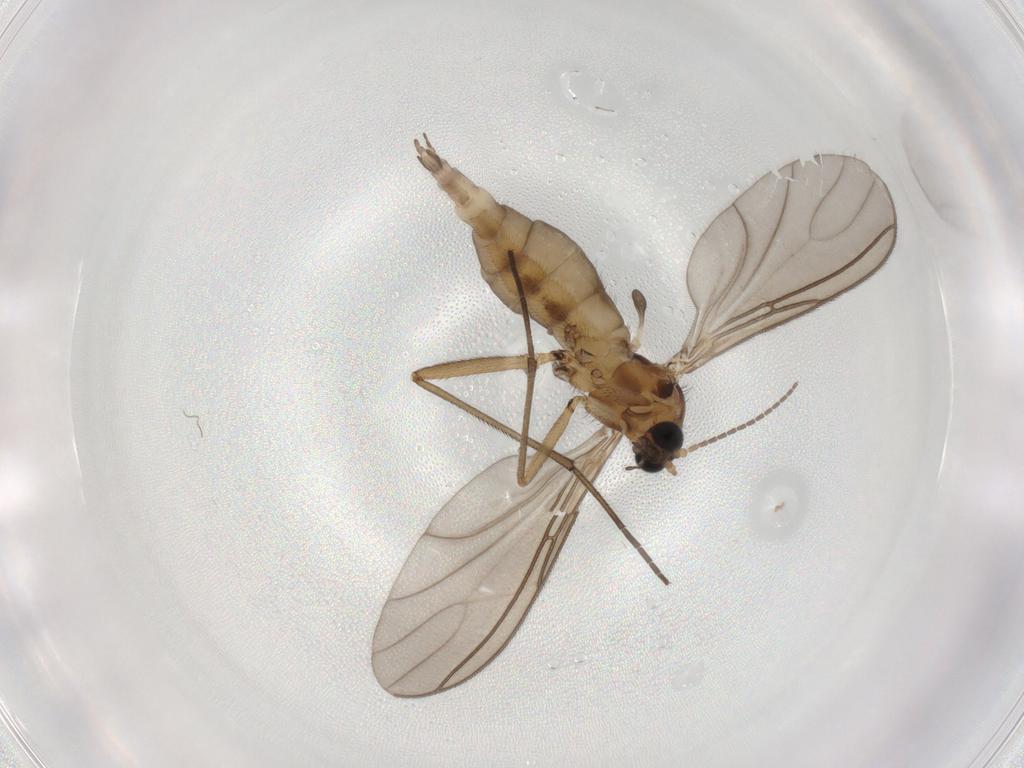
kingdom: Animalia
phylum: Arthropoda
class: Insecta
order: Diptera
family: Sciaridae
